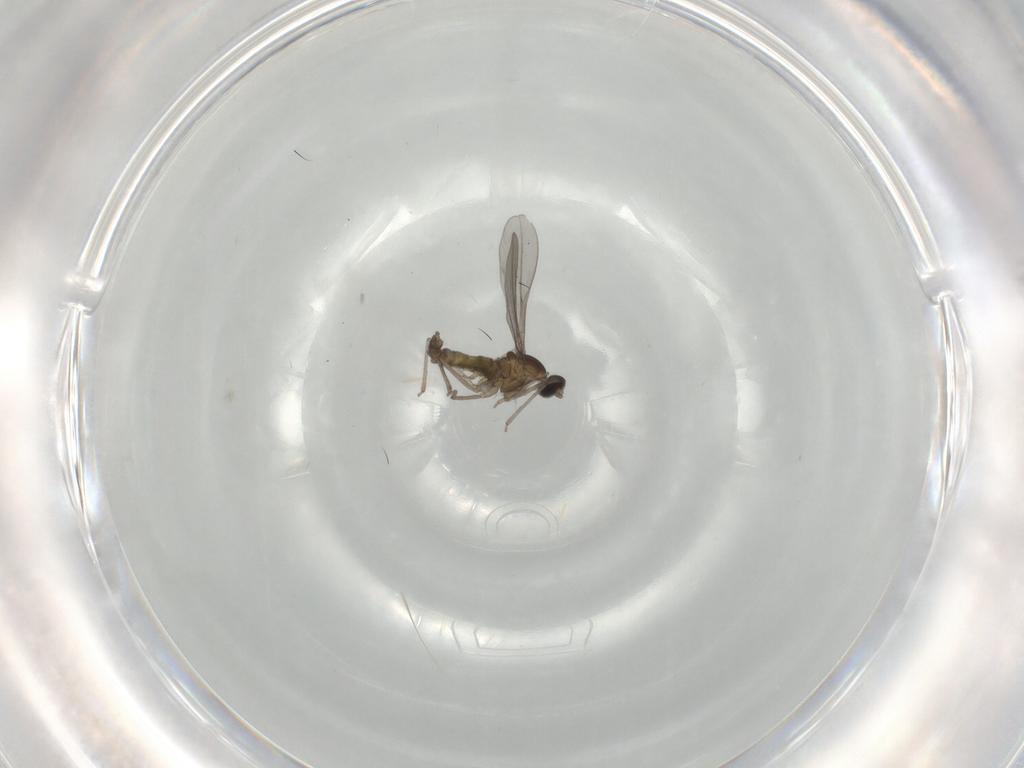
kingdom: Animalia
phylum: Arthropoda
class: Insecta
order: Diptera
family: Cecidomyiidae
